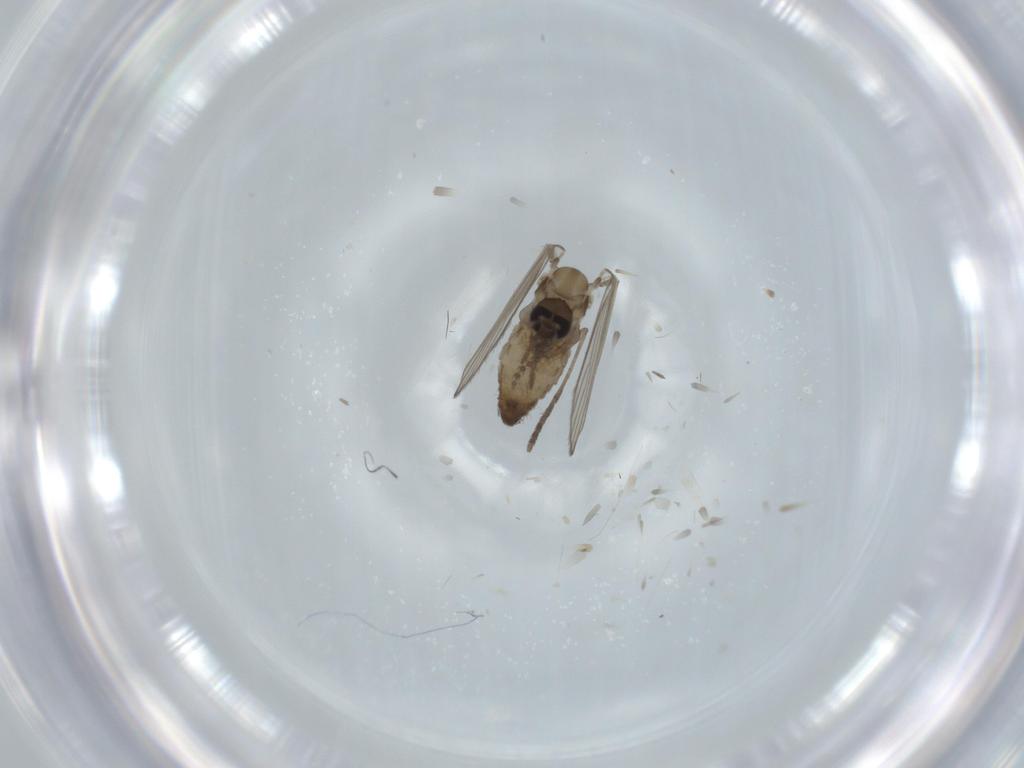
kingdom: Animalia
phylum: Arthropoda
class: Insecta
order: Diptera
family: Psychodidae
